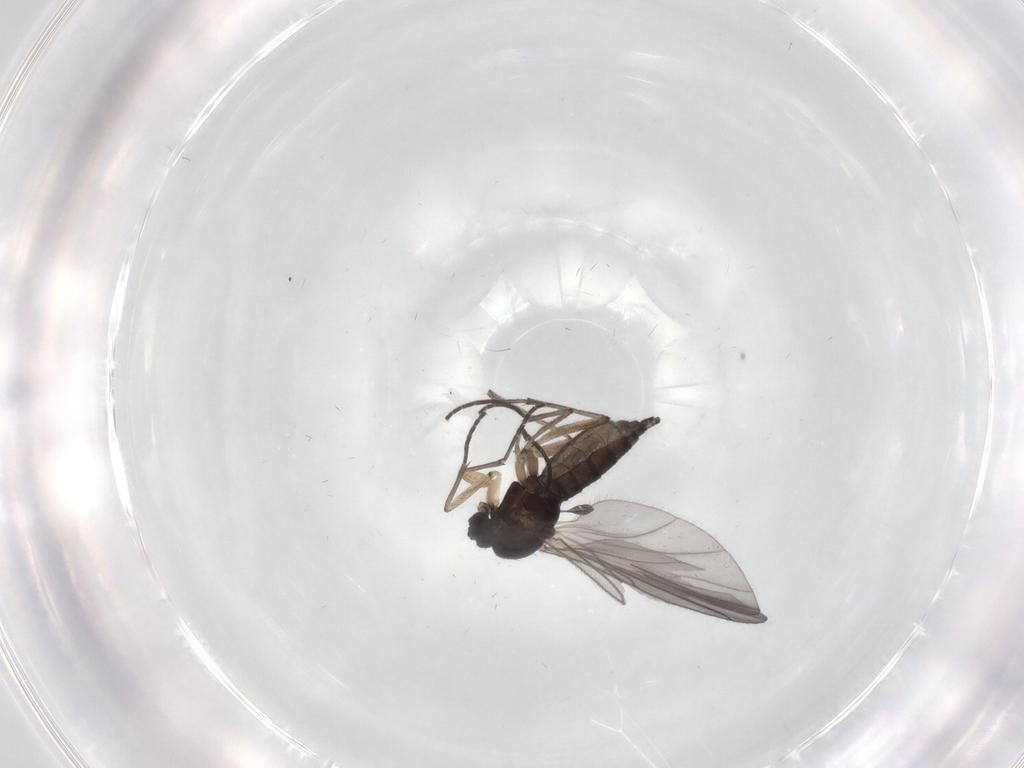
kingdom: Animalia
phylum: Arthropoda
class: Insecta
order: Diptera
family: Sciaridae
